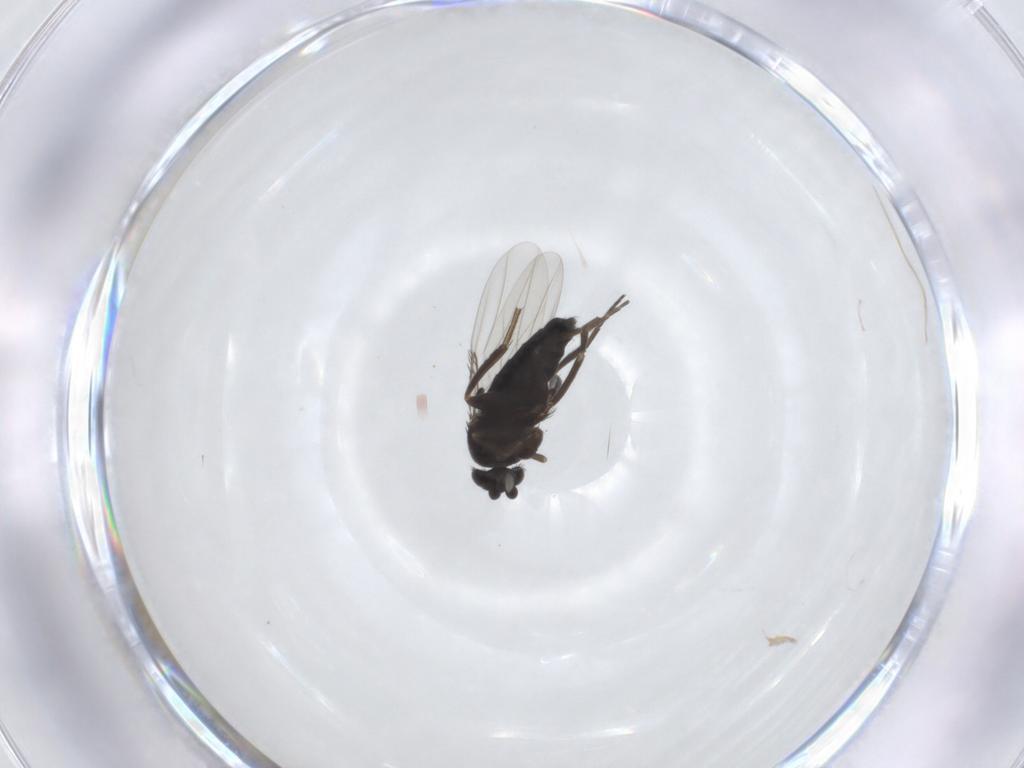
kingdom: Animalia
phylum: Arthropoda
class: Insecta
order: Diptera
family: Phoridae
